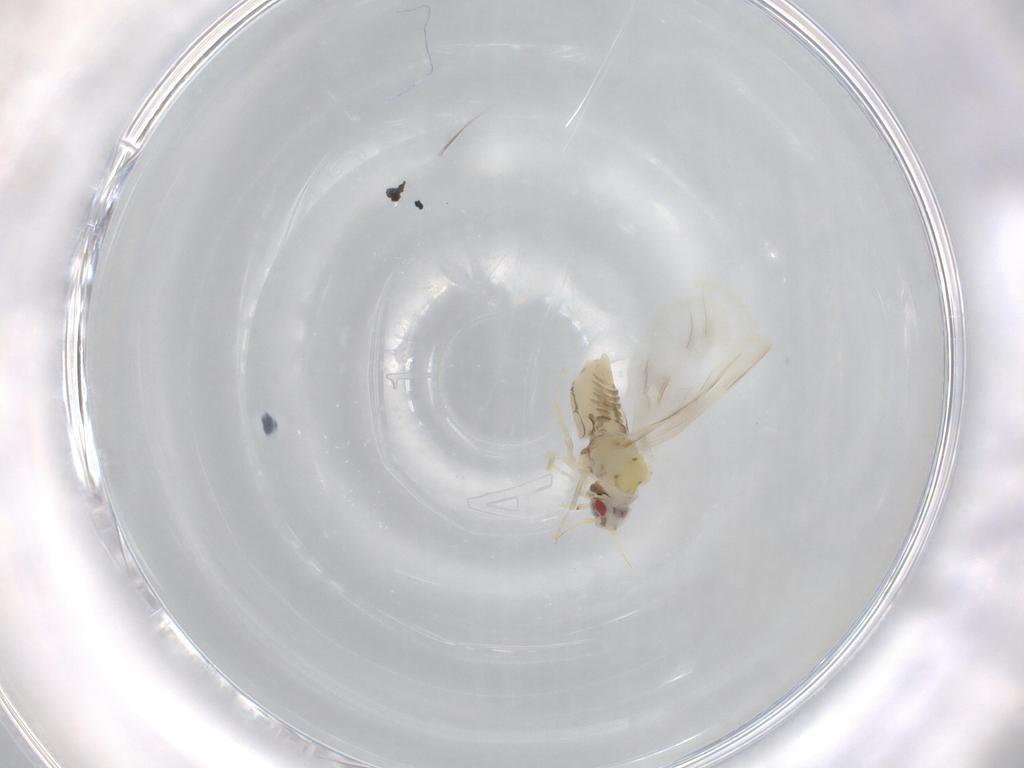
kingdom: Animalia
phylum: Arthropoda
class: Insecta
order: Hemiptera
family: Aleyrodidae
